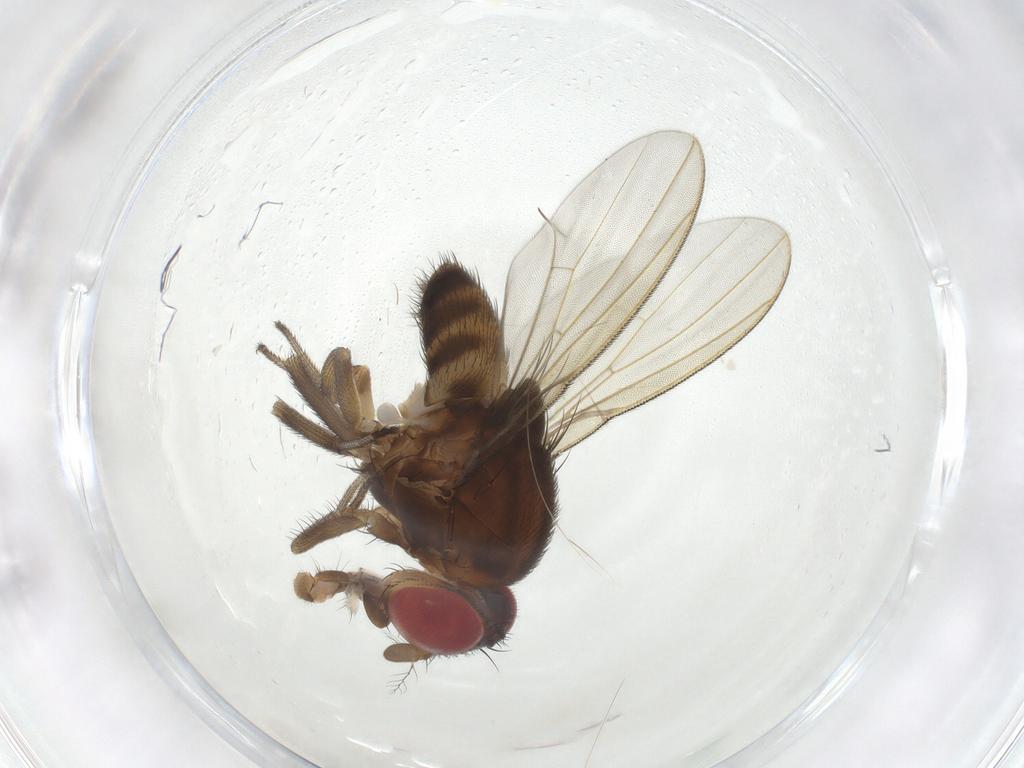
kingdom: Animalia
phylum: Arthropoda
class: Insecta
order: Diptera
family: Drosophilidae
